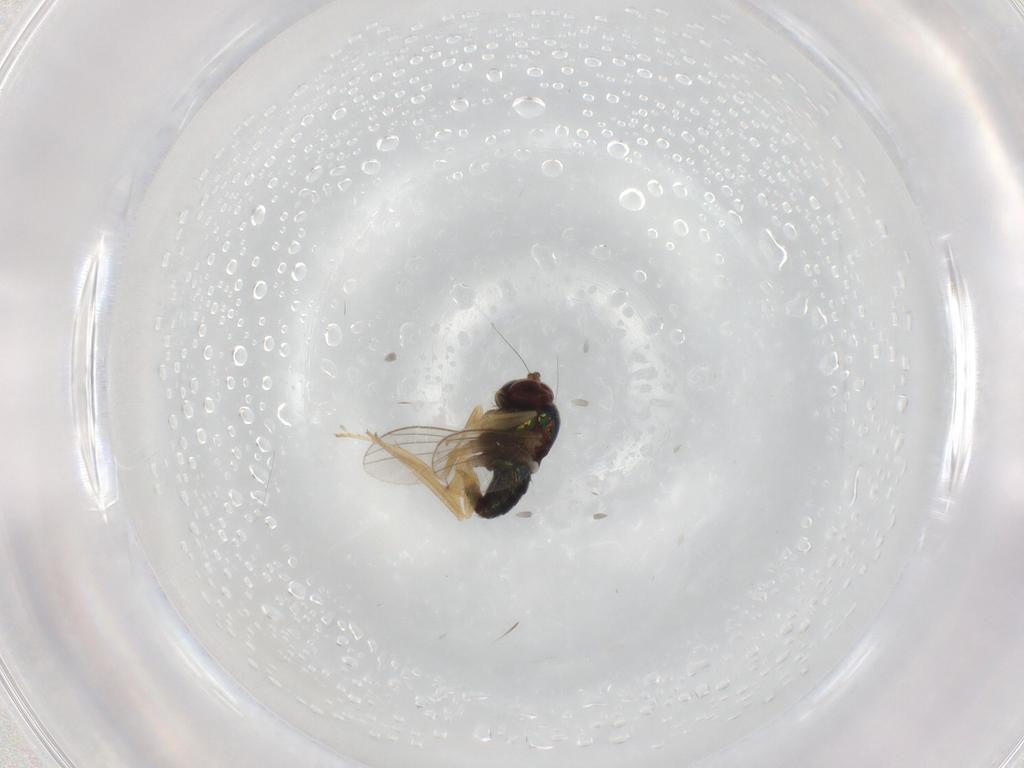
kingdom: Animalia
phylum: Arthropoda
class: Insecta
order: Diptera
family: Dolichopodidae
